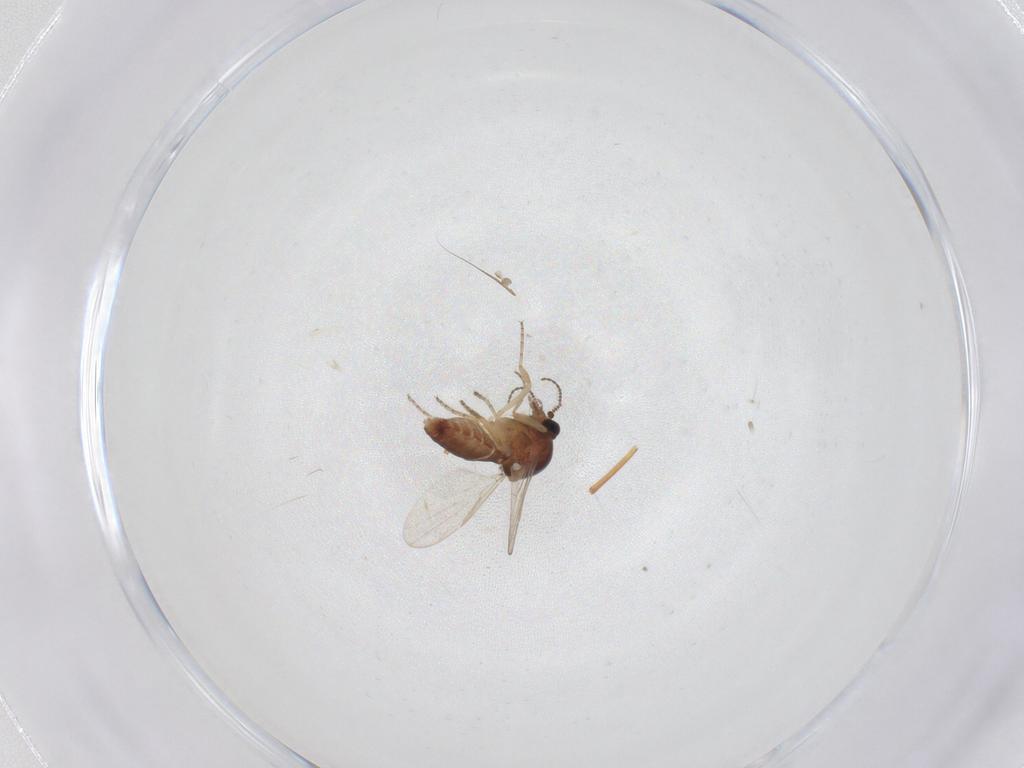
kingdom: Animalia
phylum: Arthropoda
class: Insecta
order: Diptera
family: Ceratopogonidae
